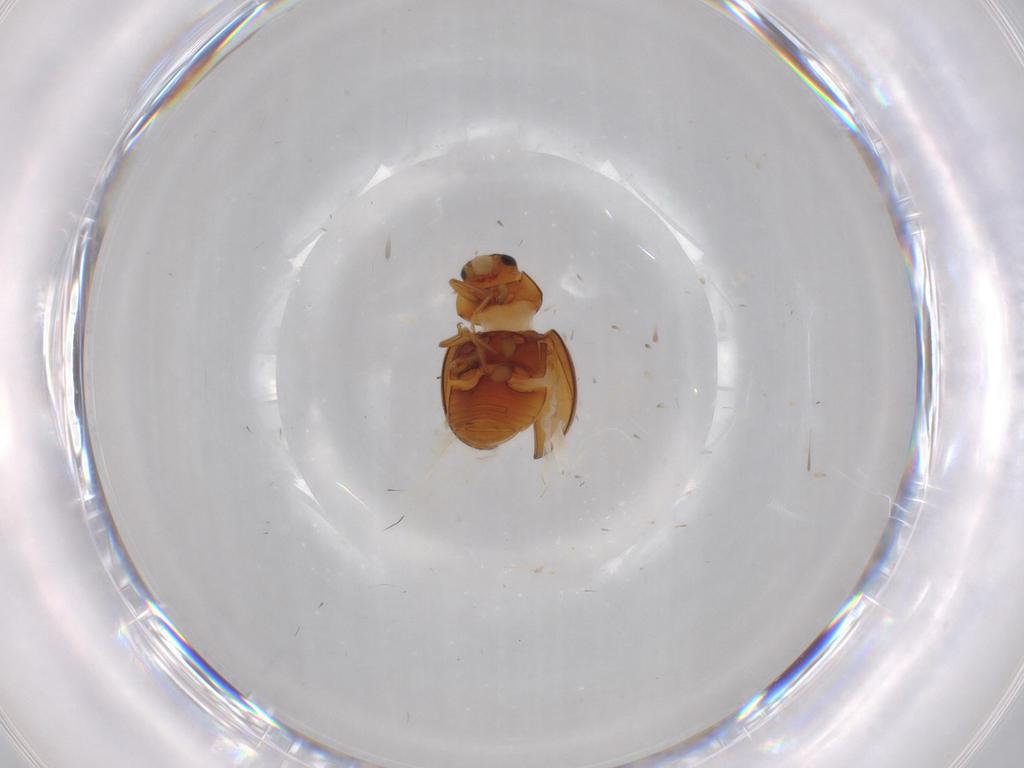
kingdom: Animalia
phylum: Arthropoda
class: Insecta
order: Coleoptera
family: Coccinellidae
